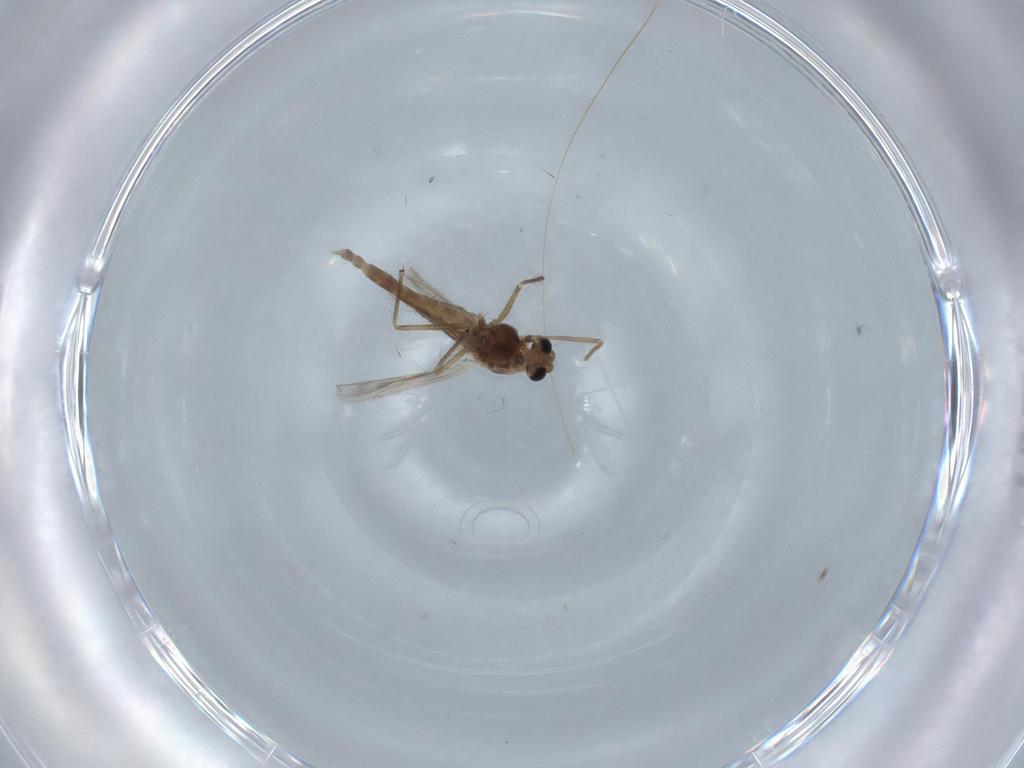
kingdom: Animalia
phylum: Arthropoda
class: Insecta
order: Diptera
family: Chironomidae
